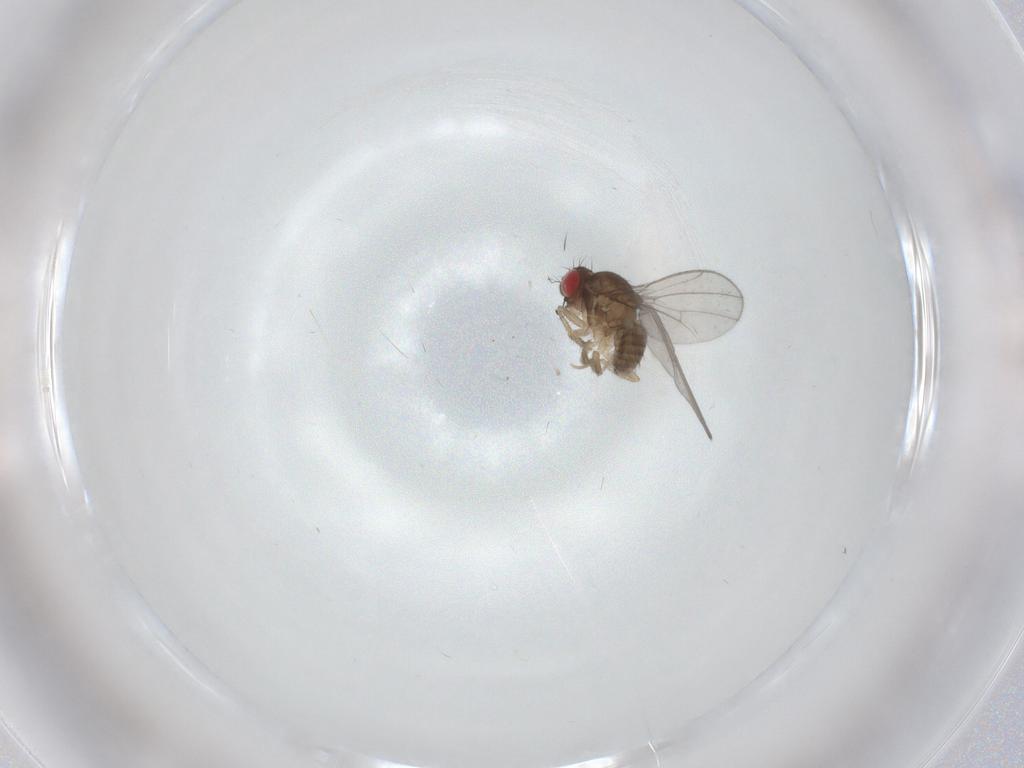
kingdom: Animalia
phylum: Arthropoda
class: Insecta
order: Diptera
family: Drosophilidae
